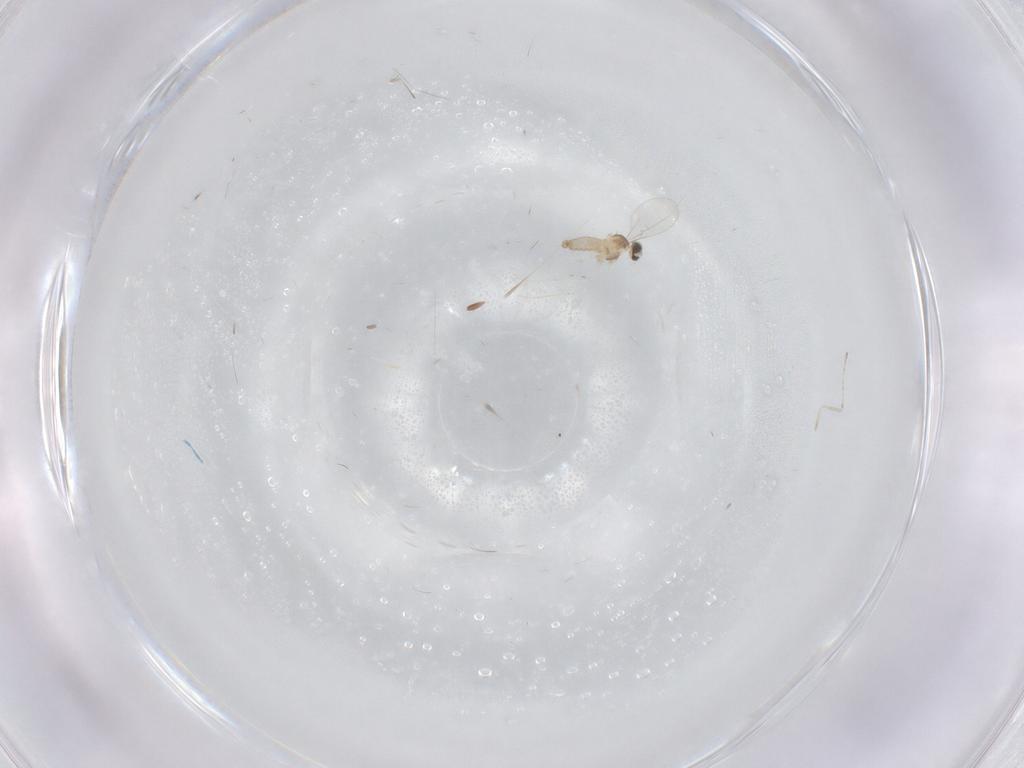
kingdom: Animalia
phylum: Arthropoda
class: Insecta
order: Diptera
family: Cecidomyiidae
